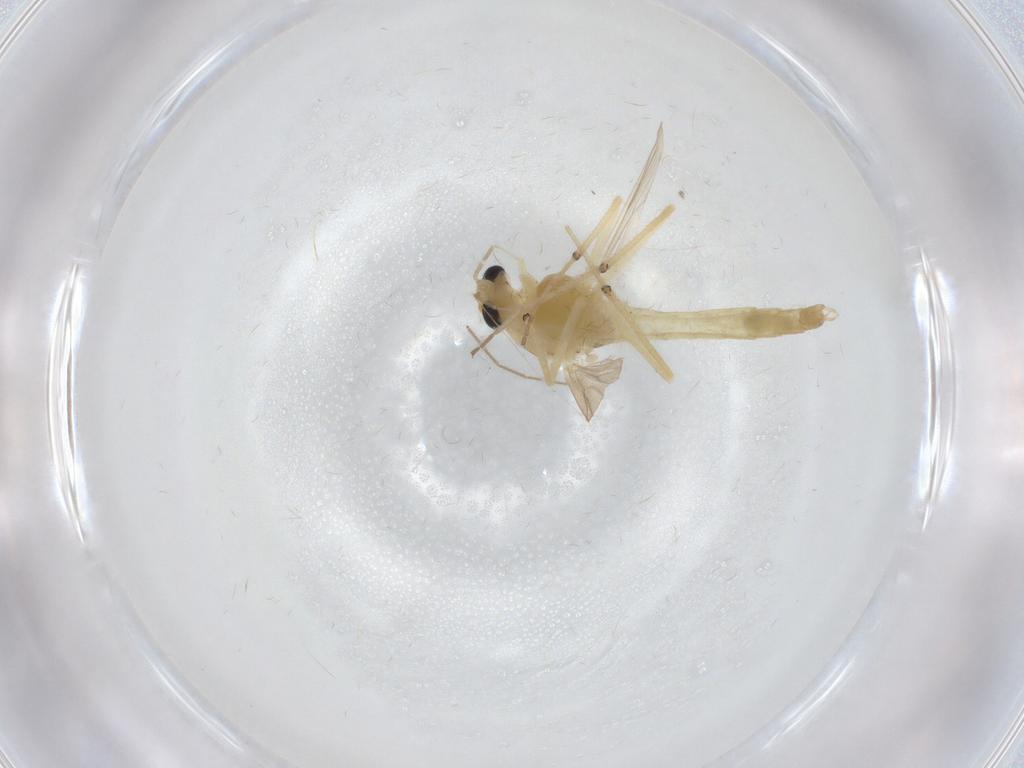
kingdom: Animalia
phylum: Arthropoda
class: Insecta
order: Diptera
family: Chironomidae
